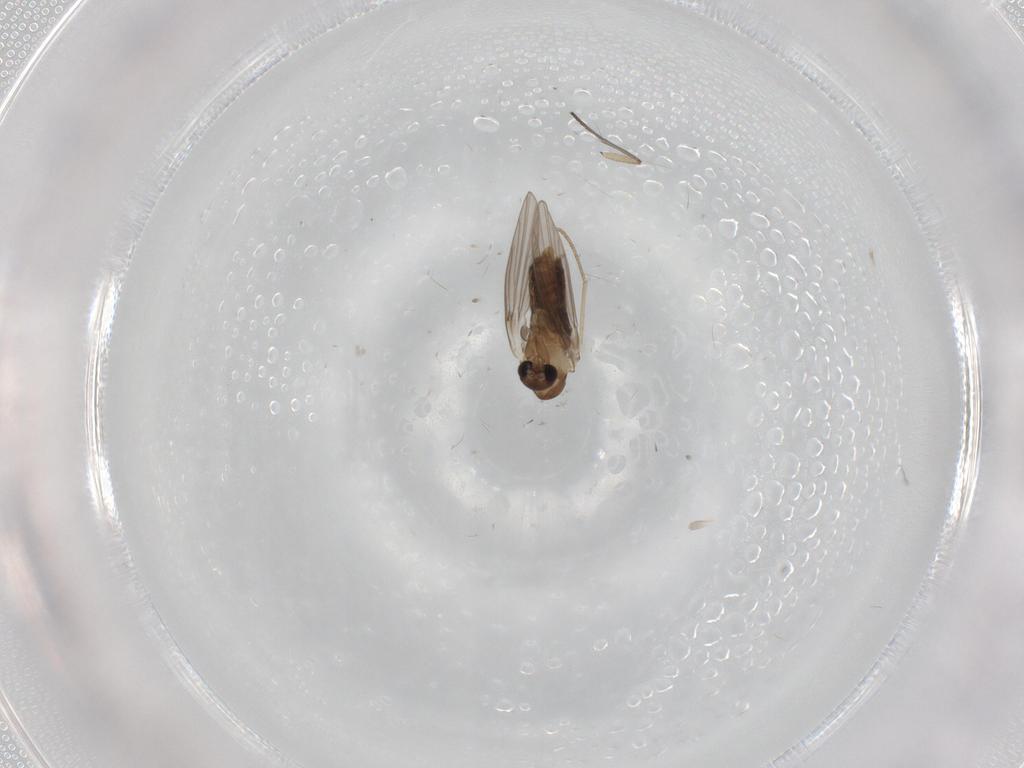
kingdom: Animalia
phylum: Arthropoda
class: Insecta
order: Diptera
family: Psychodidae
